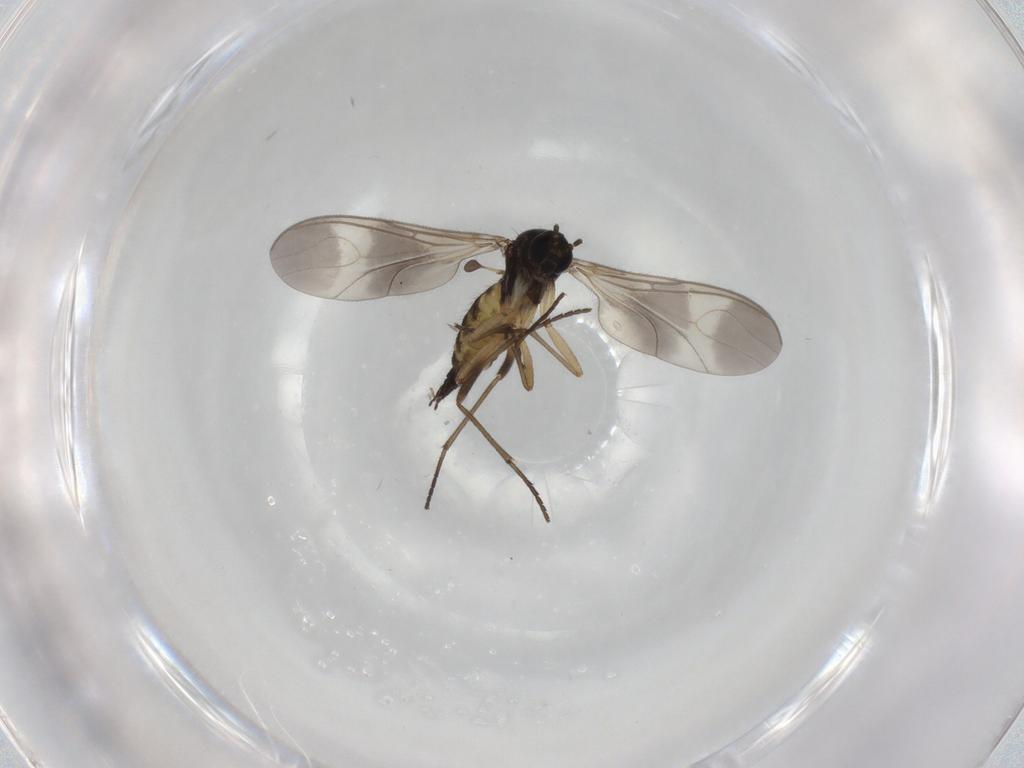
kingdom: Animalia
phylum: Arthropoda
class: Insecta
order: Diptera
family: Sciaridae
